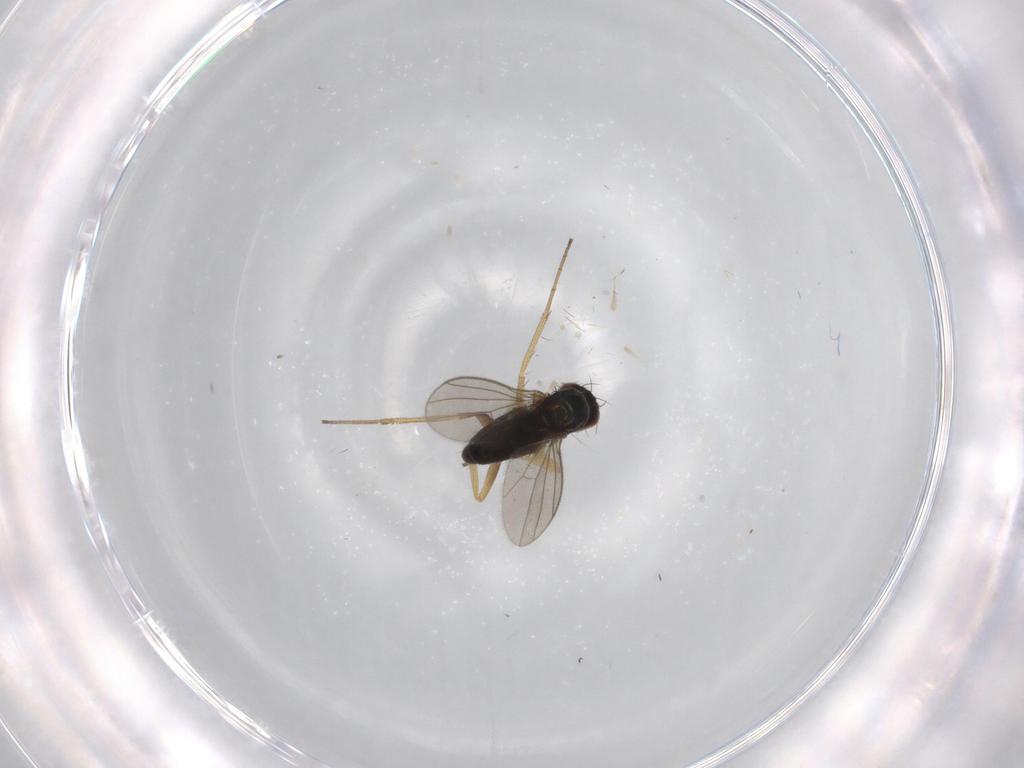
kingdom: Animalia
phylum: Arthropoda
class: Insecta
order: Diptera
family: Dolichopodidae
